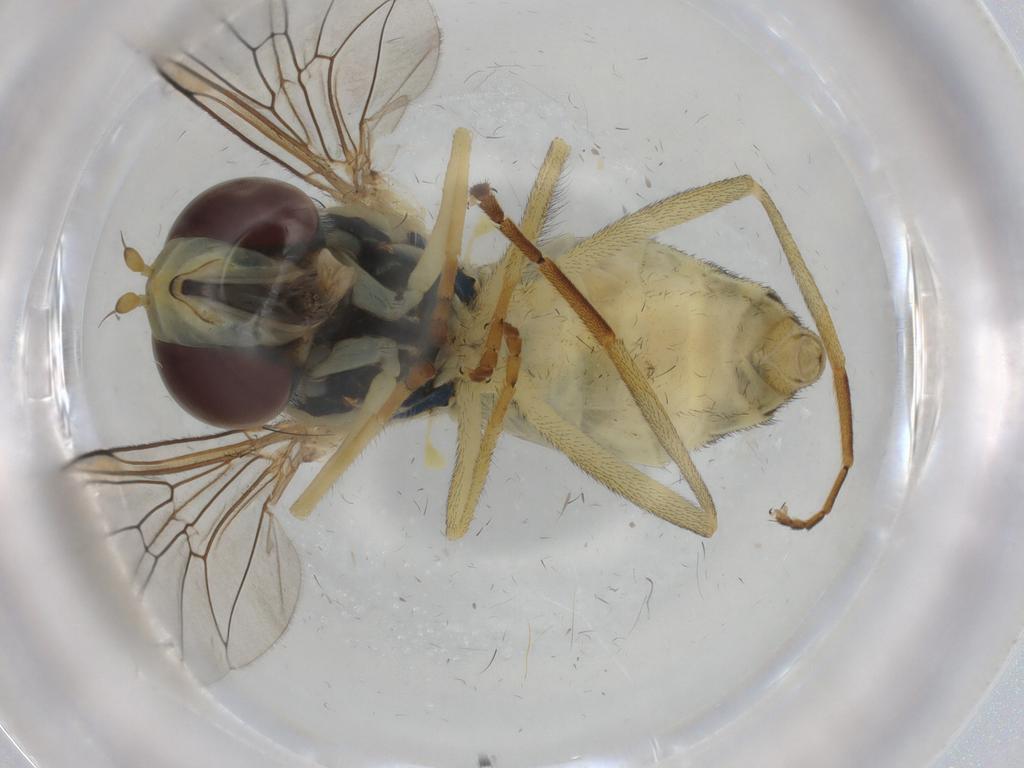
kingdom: Animalia
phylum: Arthropoda
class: Insecta
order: Diptera
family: Syrphidae
